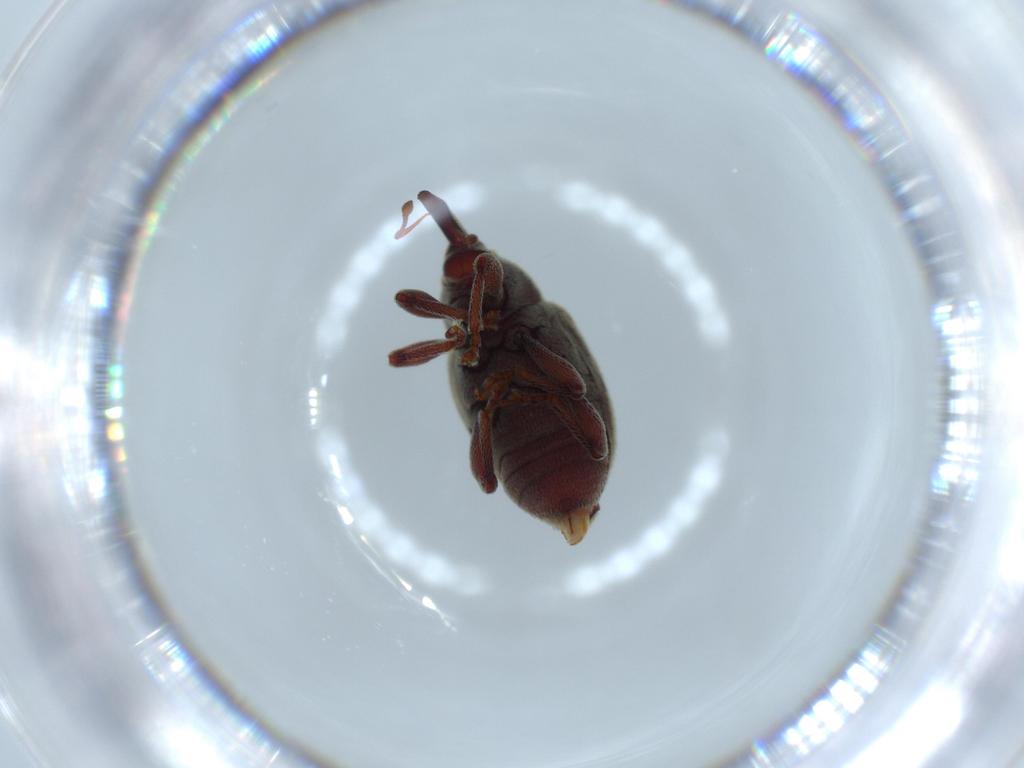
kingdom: Animalia
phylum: Arthropoda
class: Insecta
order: Coleoptera
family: Curculionidae
